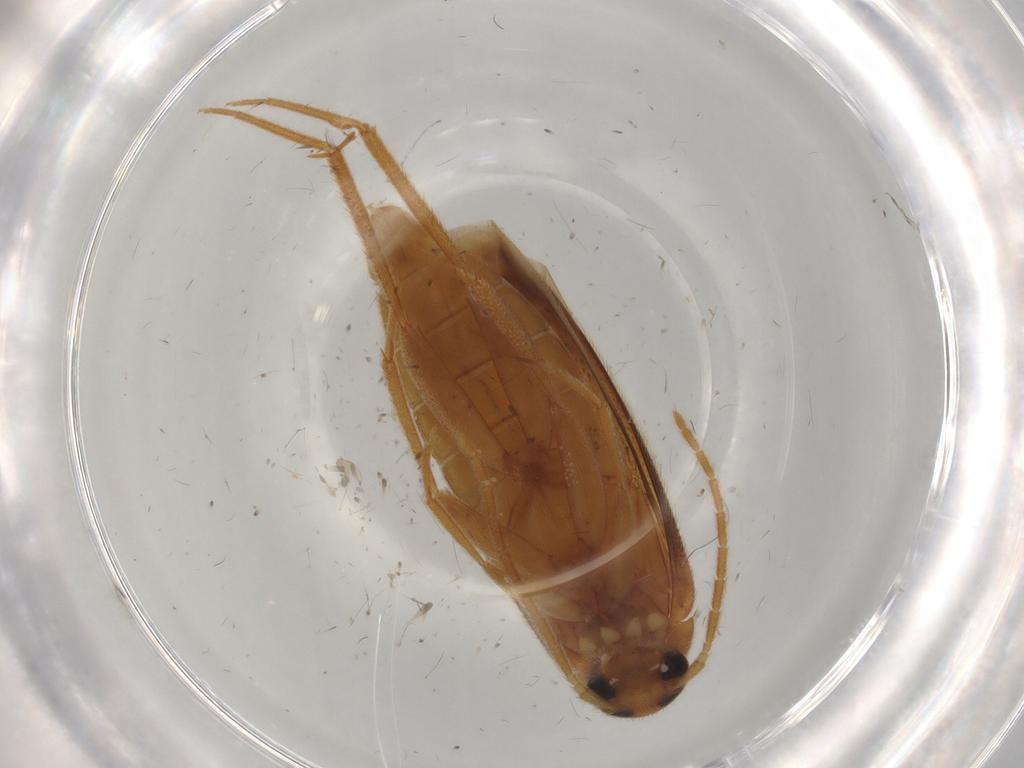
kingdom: Animalia
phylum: Arthropoda
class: Insecta
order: Coleoptera
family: Scraptiidae
